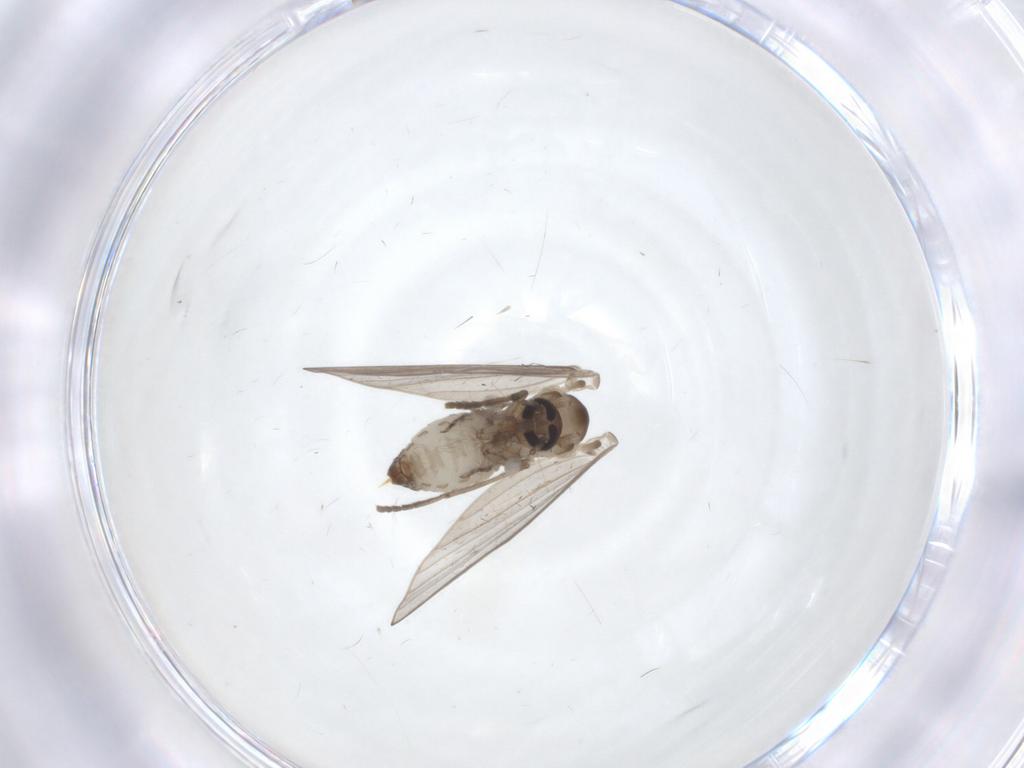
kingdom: Animalia
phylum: Arthropoda
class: Insecta
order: Diptera
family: Psychodidae
